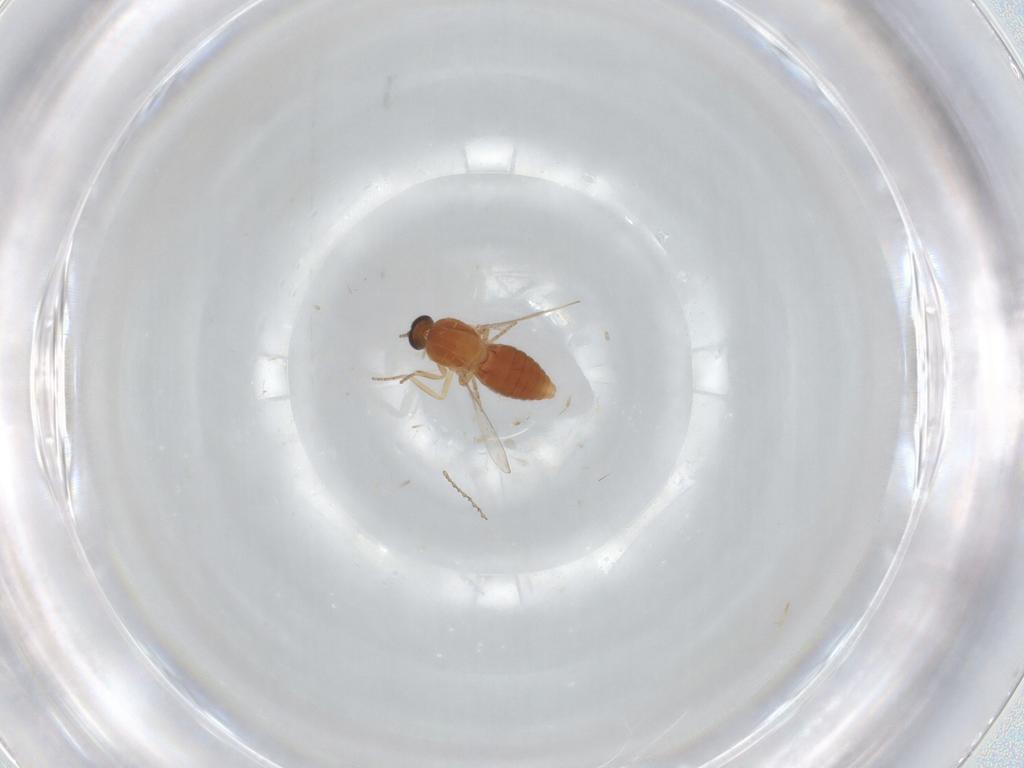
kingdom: Animalia
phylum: Arthropoda
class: Insecta
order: Diptera
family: Ceratopogonidae
